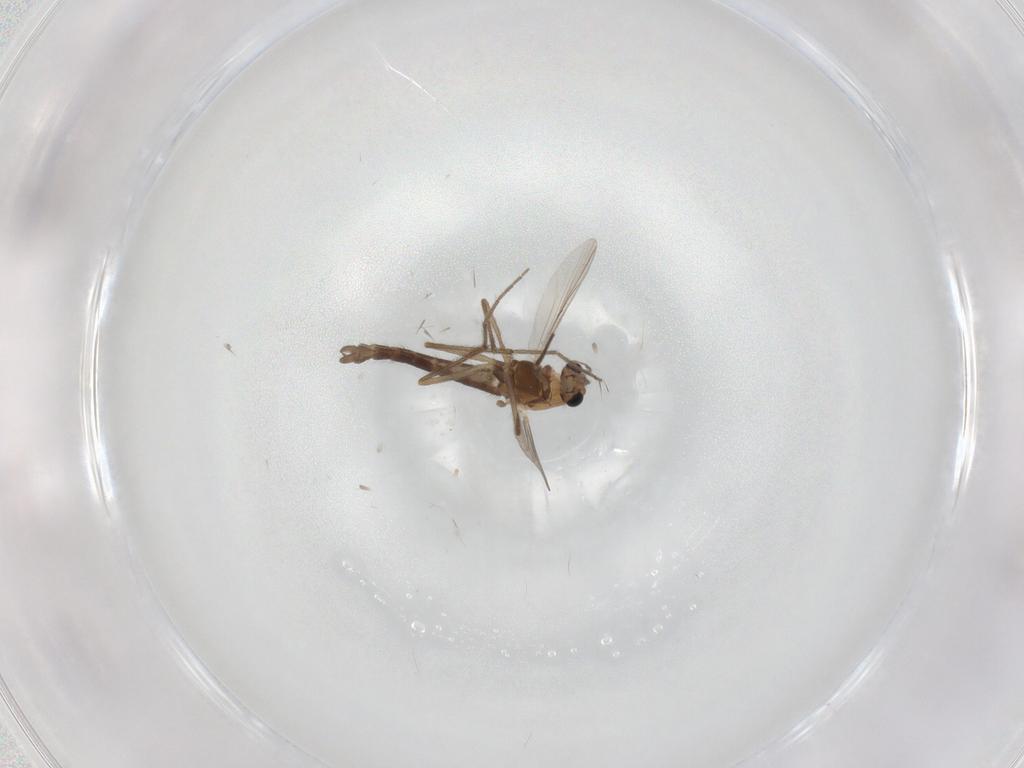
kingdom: Animalia
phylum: Arthropoda
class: Insecta
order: Diptera
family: Chironomidae
